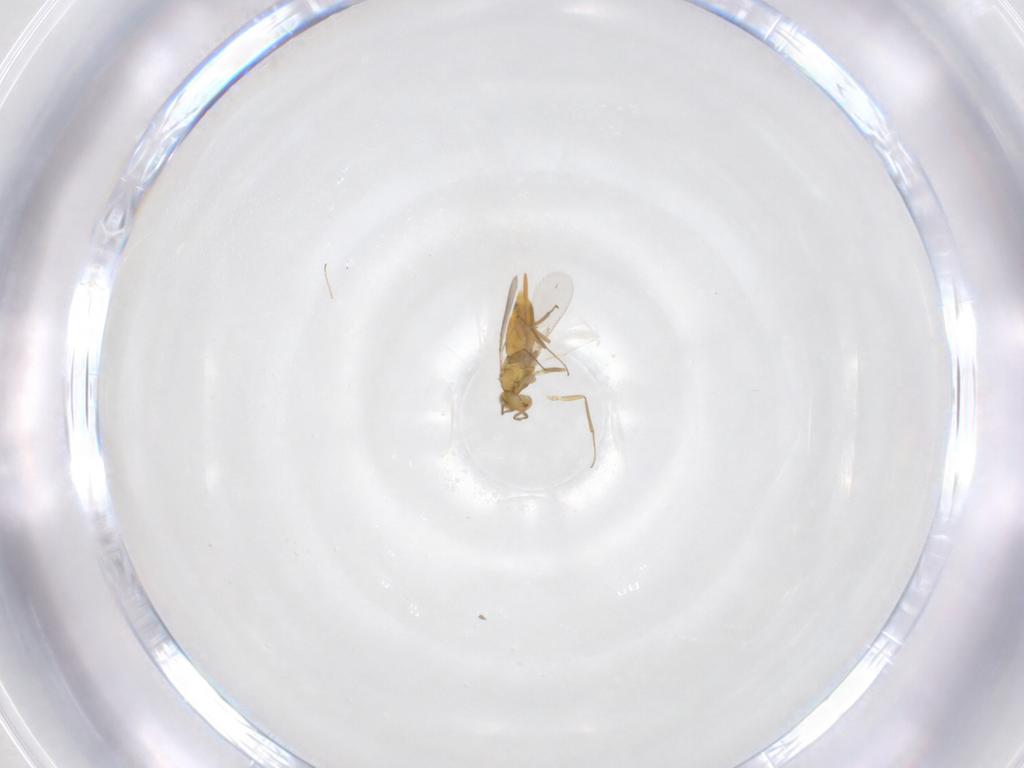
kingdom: Animalia
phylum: Arthropoda
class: Insecta
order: Hymenoptera
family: Aphelinidae
